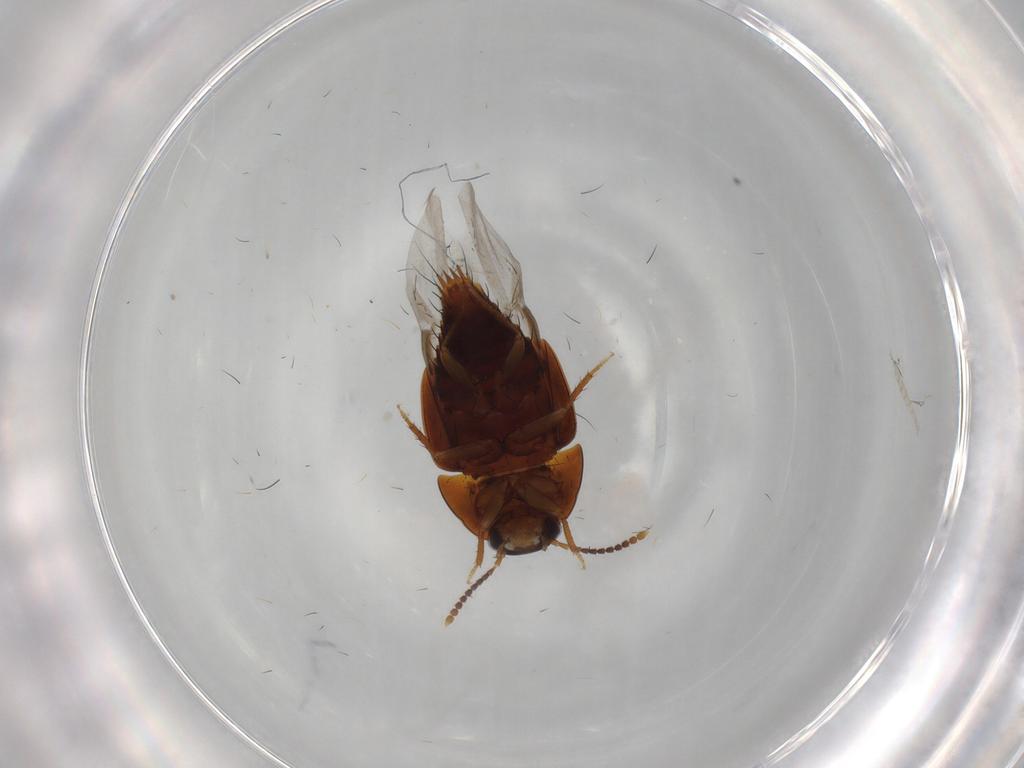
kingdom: Animalia
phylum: Arthropoda
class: Insecta
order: Coleoptera
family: Staphylinidae
